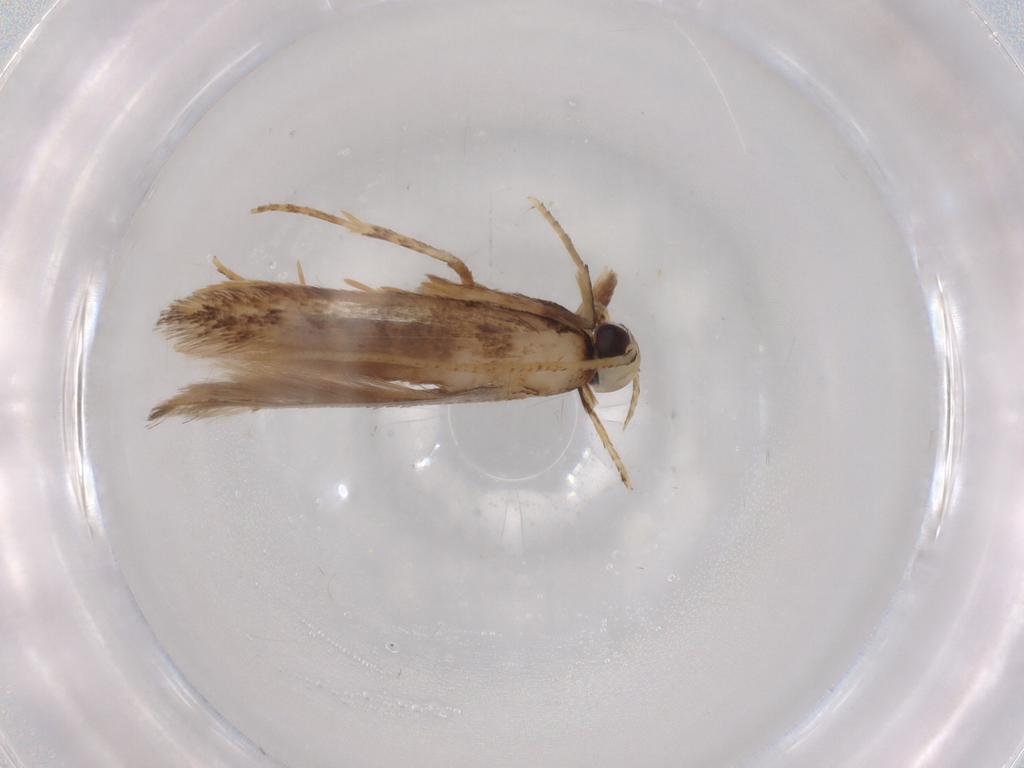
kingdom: Animalia
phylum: Arthropoda
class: Insecta
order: Lepidoptera
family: Coleophoridae
